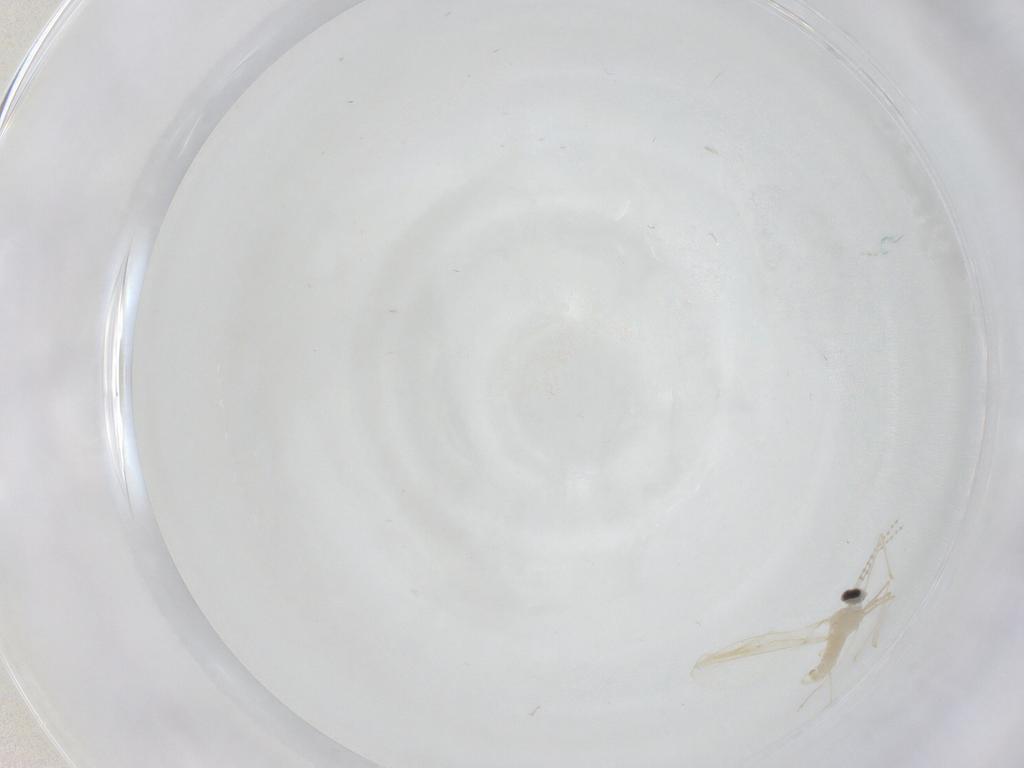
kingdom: Animalia
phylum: Arthropoda
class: Insecta
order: Diptera
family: Cecidomyiidae
